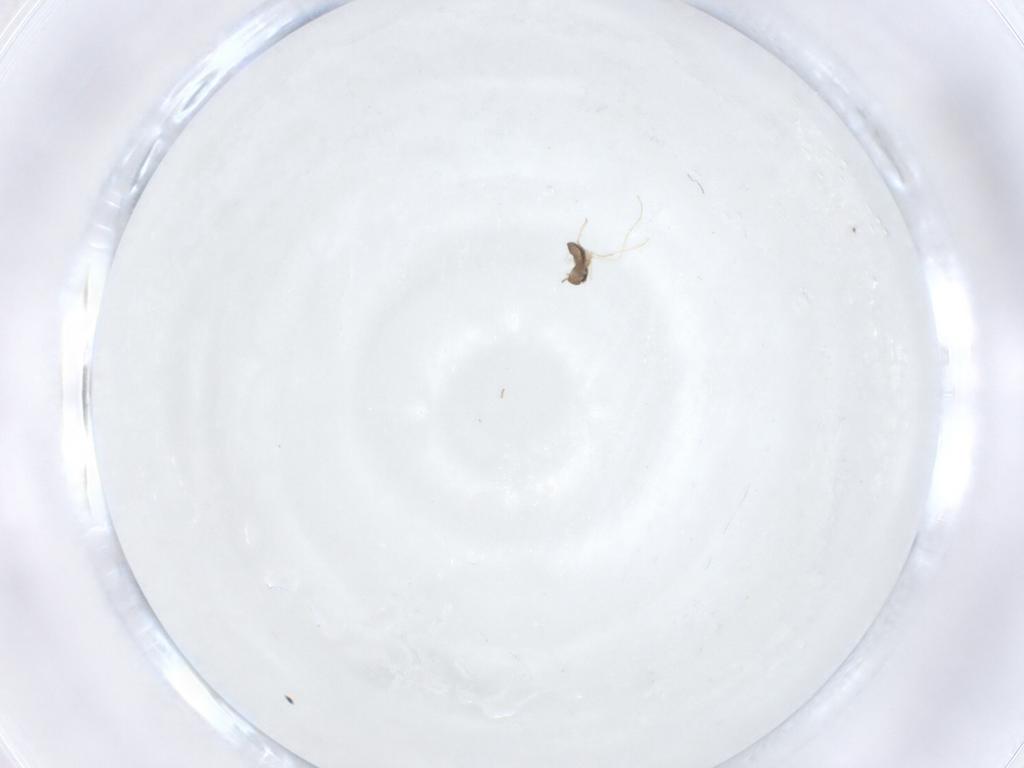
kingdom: Animalia
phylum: Arthropoda
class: Insecta
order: Diptera
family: Cecidomyiidae
